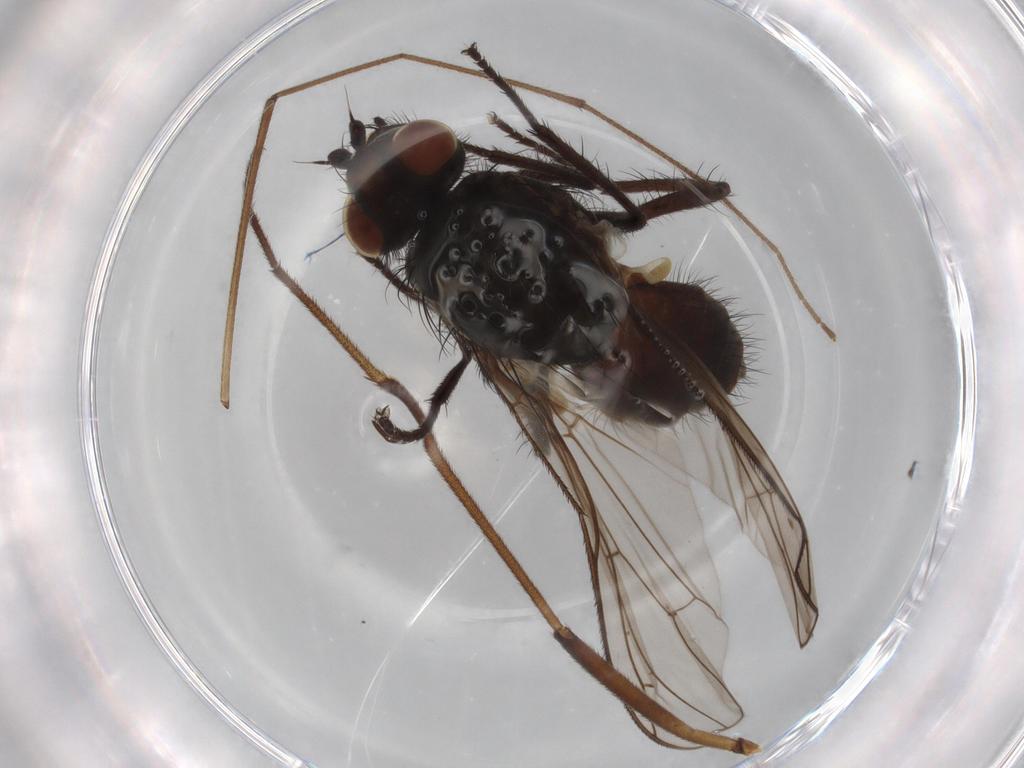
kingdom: Animalia
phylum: Arthropoda
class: Insecta
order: Diptera
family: Trichoceridae
